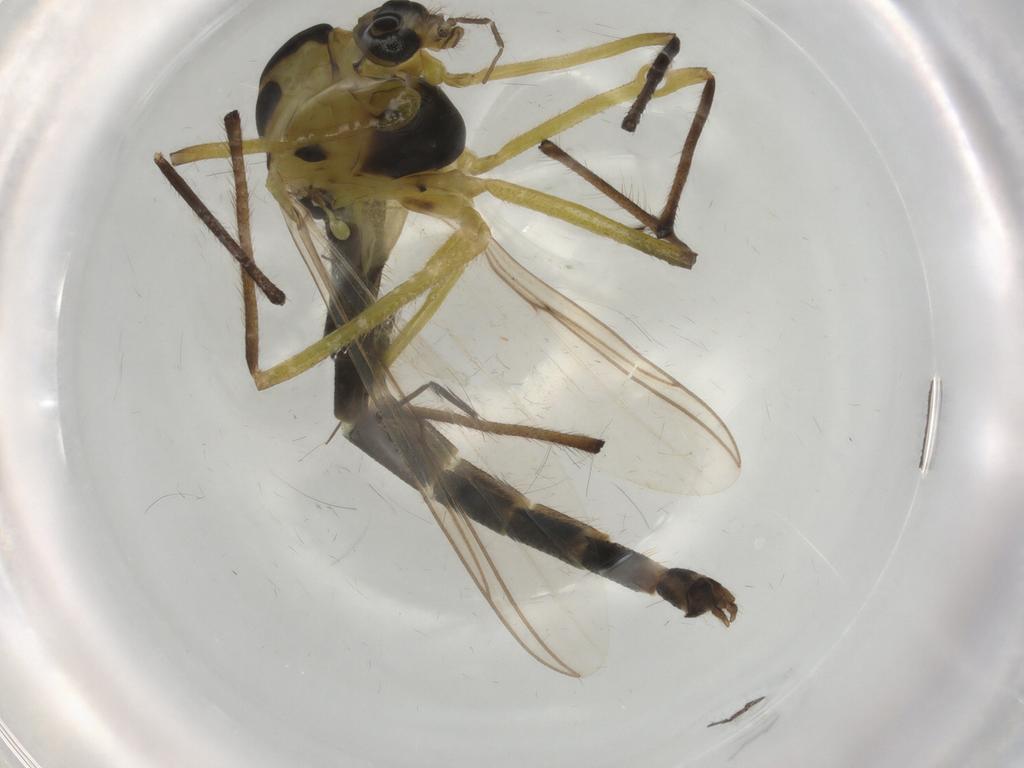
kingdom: Animalia
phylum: Arthropoda
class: Insecta
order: Diptera
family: Chironomidae
